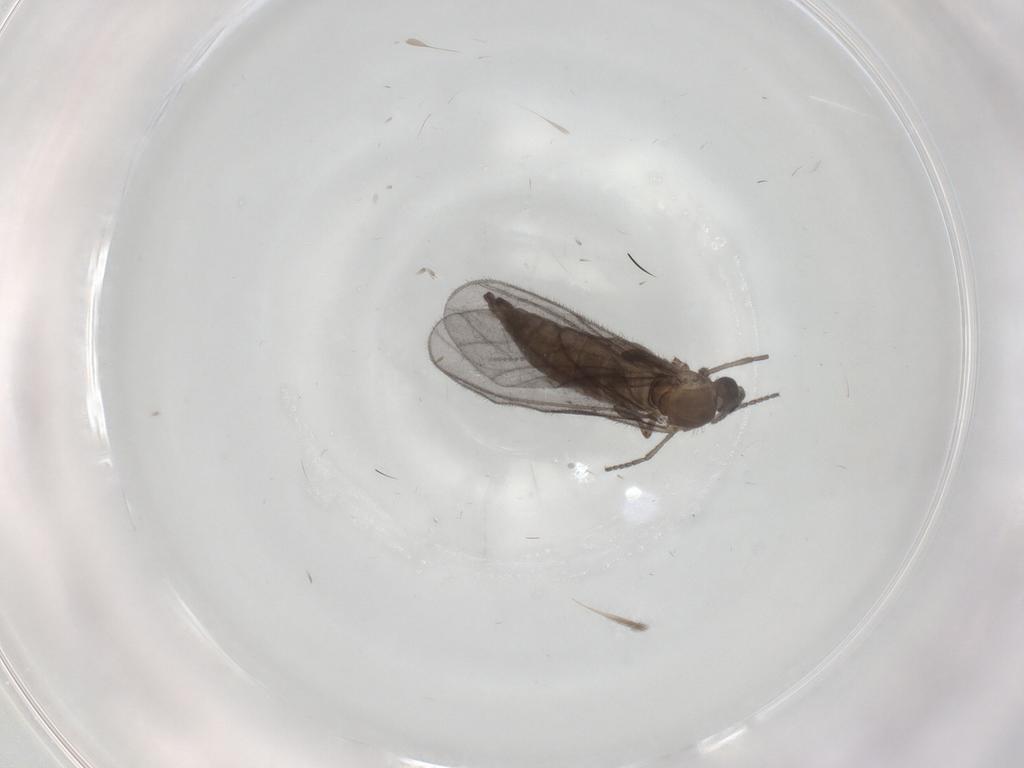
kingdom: Animalia
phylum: Arthropoda
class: Insecta
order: Diptera
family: Sciaridae
